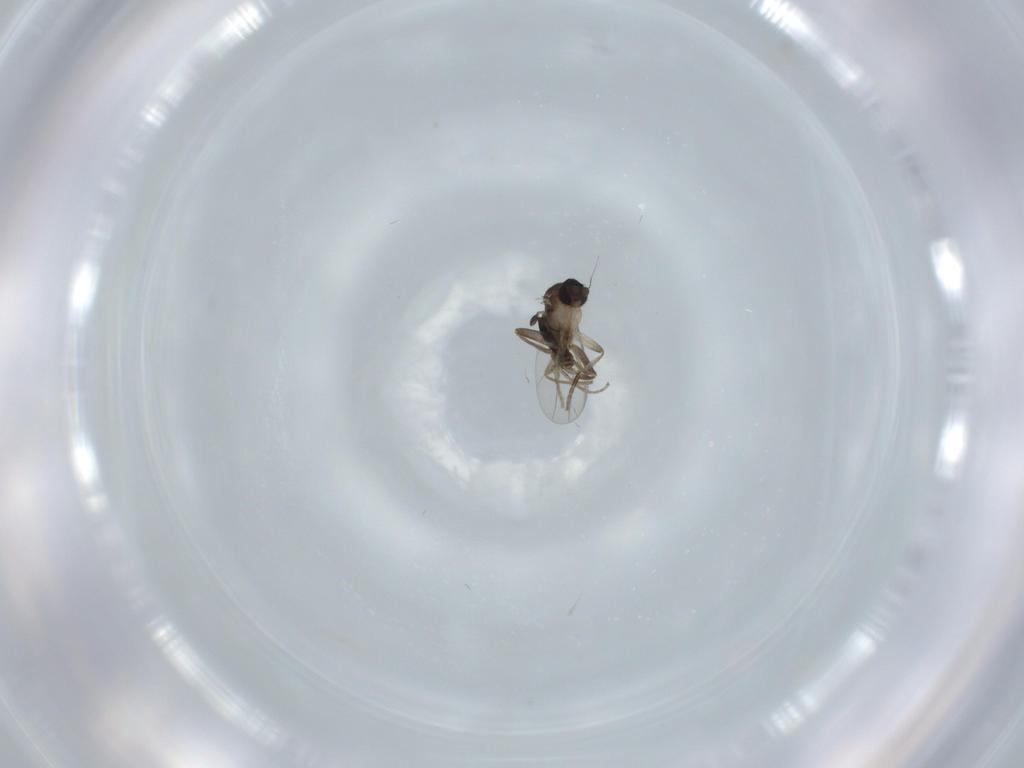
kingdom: Animalia
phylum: Arthropoda
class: Insecta
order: Diptera
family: Phoridae
